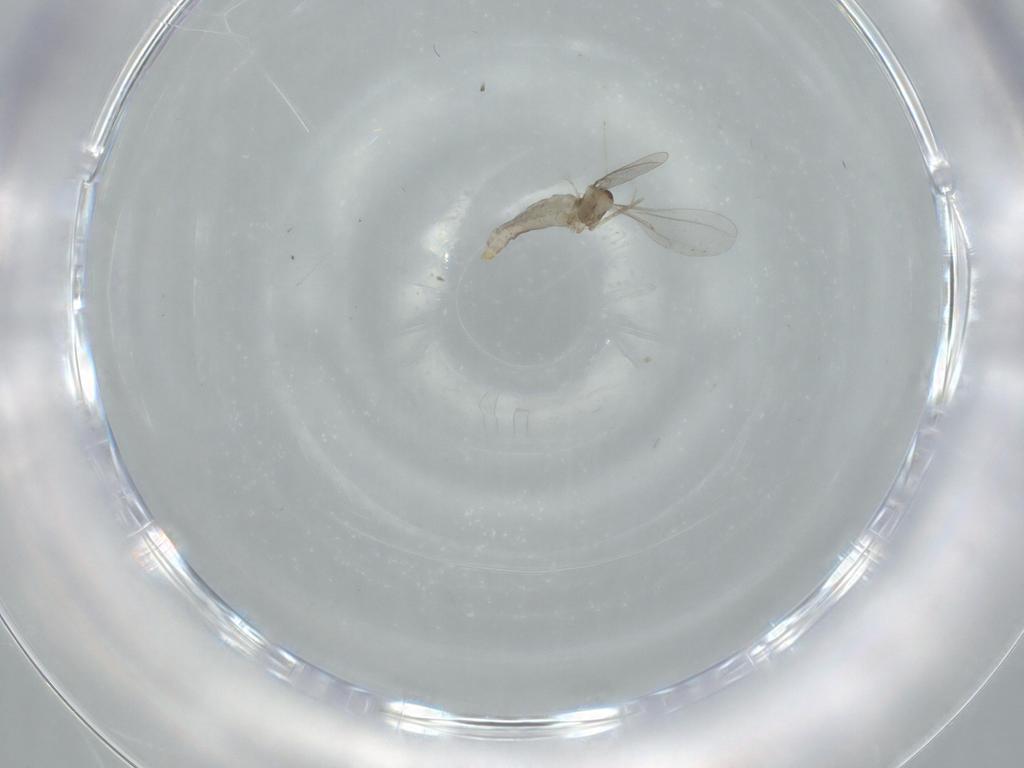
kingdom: Animalia
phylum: Arthropoda
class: Insecta
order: Diptera
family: Cecidomyiidae
